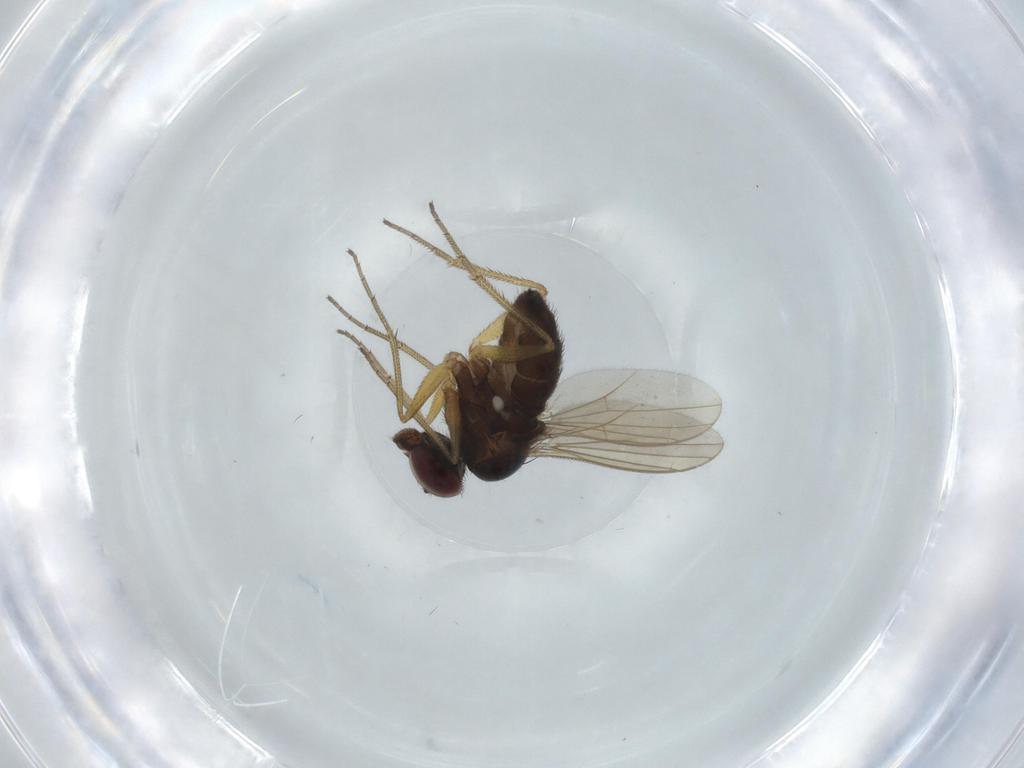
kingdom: Animalia
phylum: Arthropoda
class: Insecta
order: Diptera
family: Dolichopodidae
